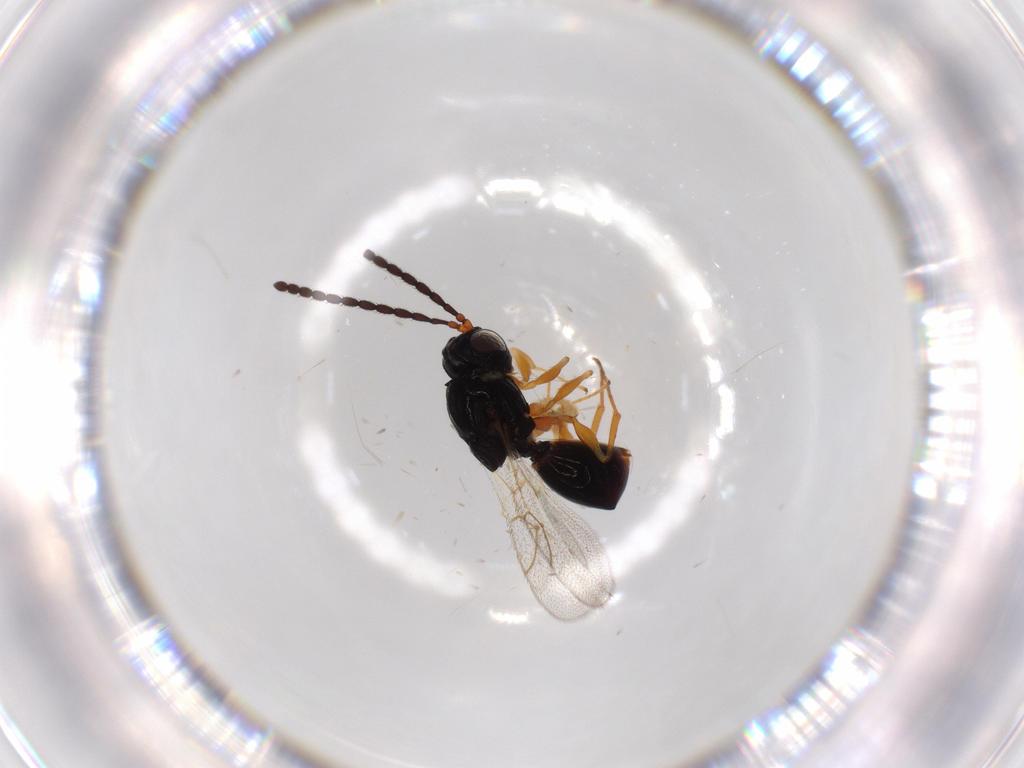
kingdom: Animalia
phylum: Arthropoda
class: Insecta
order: Hymenoptera
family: Figitidae
